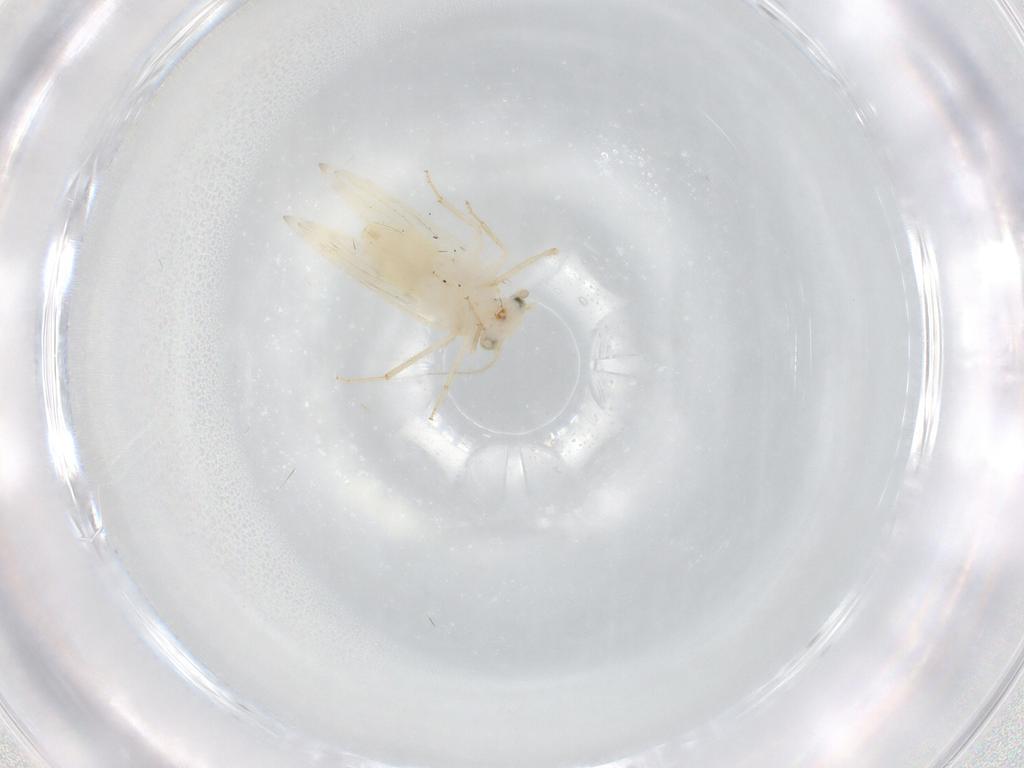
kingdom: Animalia
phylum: Arthropoda
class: Insecta
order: Psocodea
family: Lepidopsocidae
